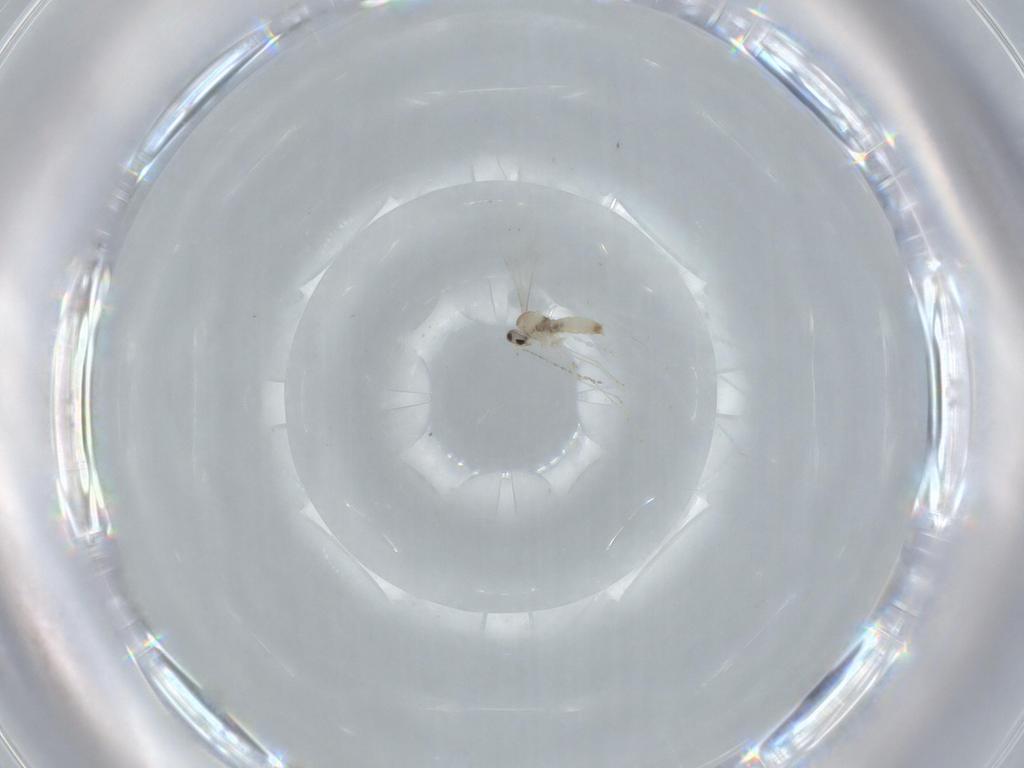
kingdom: Animalia
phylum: Arthropoda
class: Insecta
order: Diptera
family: Cecidomyiidae
